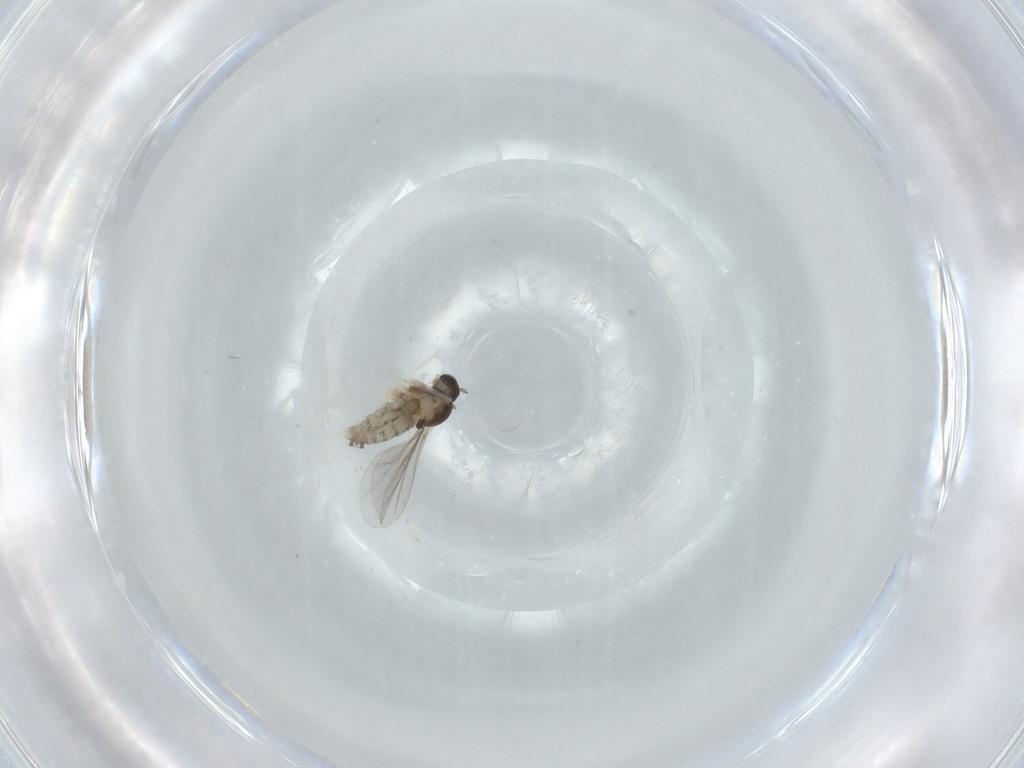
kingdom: Animalia
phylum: Arthropoda
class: Insecta
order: Diptera
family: Cecidomyiidae
